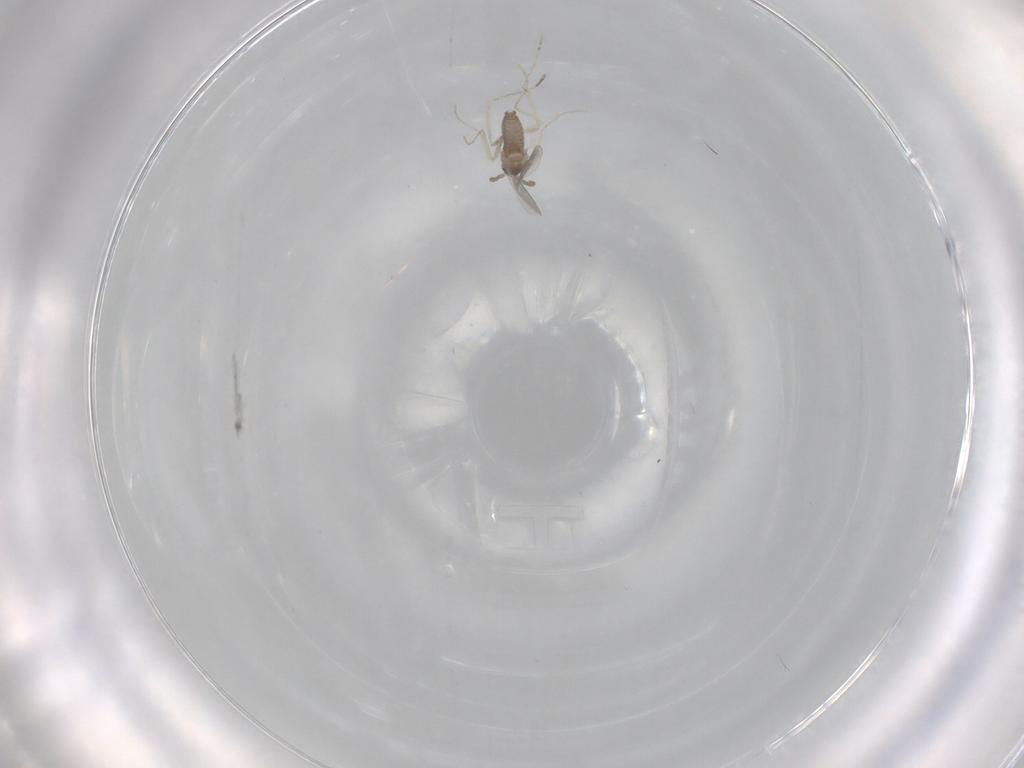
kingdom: Animalia
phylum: Arthropoda
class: Insecta
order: Diptera
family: Cecidomyiidae
